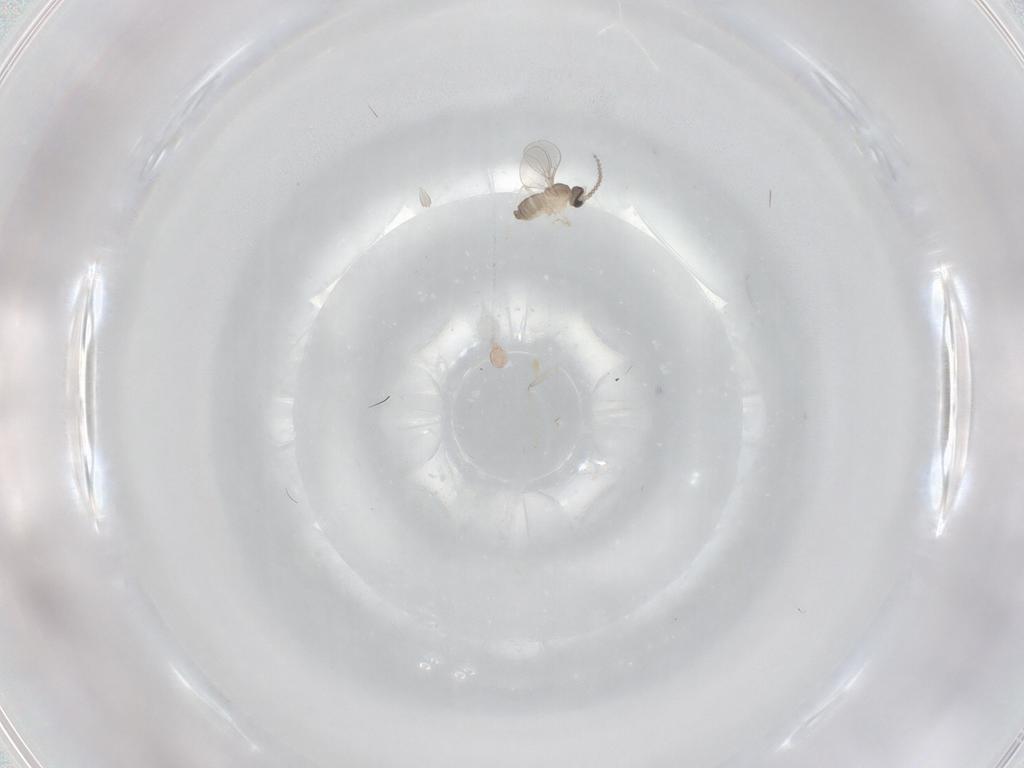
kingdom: Animalia
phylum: Arthropoda
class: Insecta
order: Diptera
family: Cecidomyiidae
